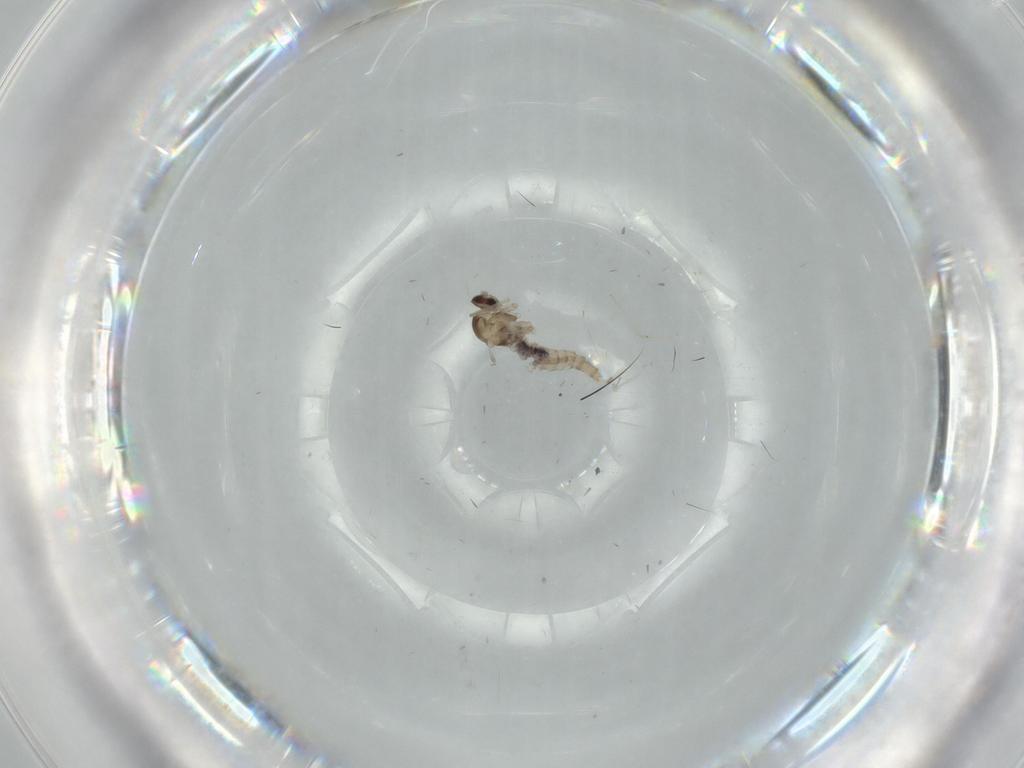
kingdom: Animalia
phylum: Arthropoda
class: Insecta
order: Diptera
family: Cecidomyiidae
